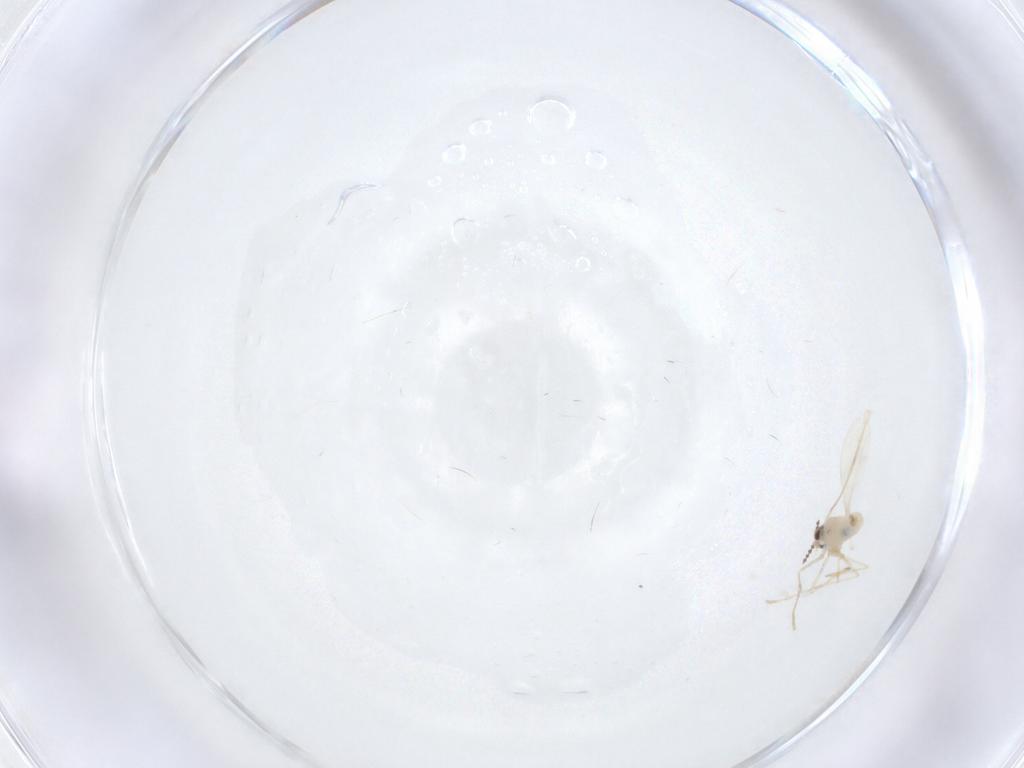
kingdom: Animalia
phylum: Arthropoda
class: Insecta
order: Diptera
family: Cecidomyiidae
